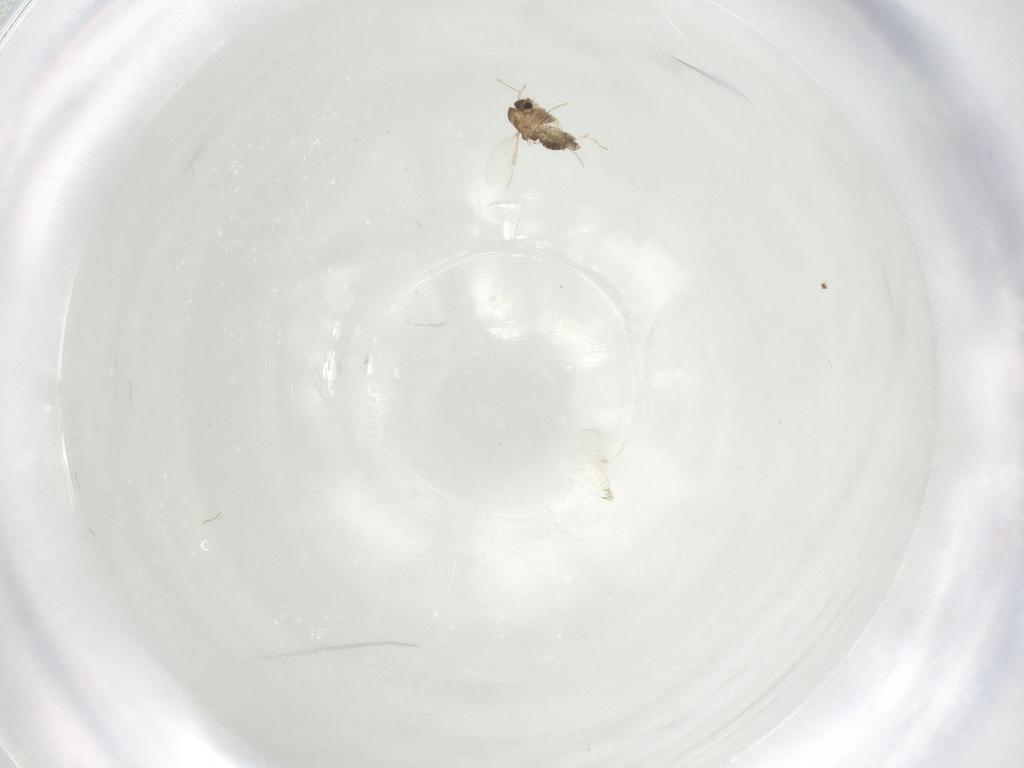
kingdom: Animalia
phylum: Arthropoda
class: Insecta
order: Diptera
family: Chironomidae
